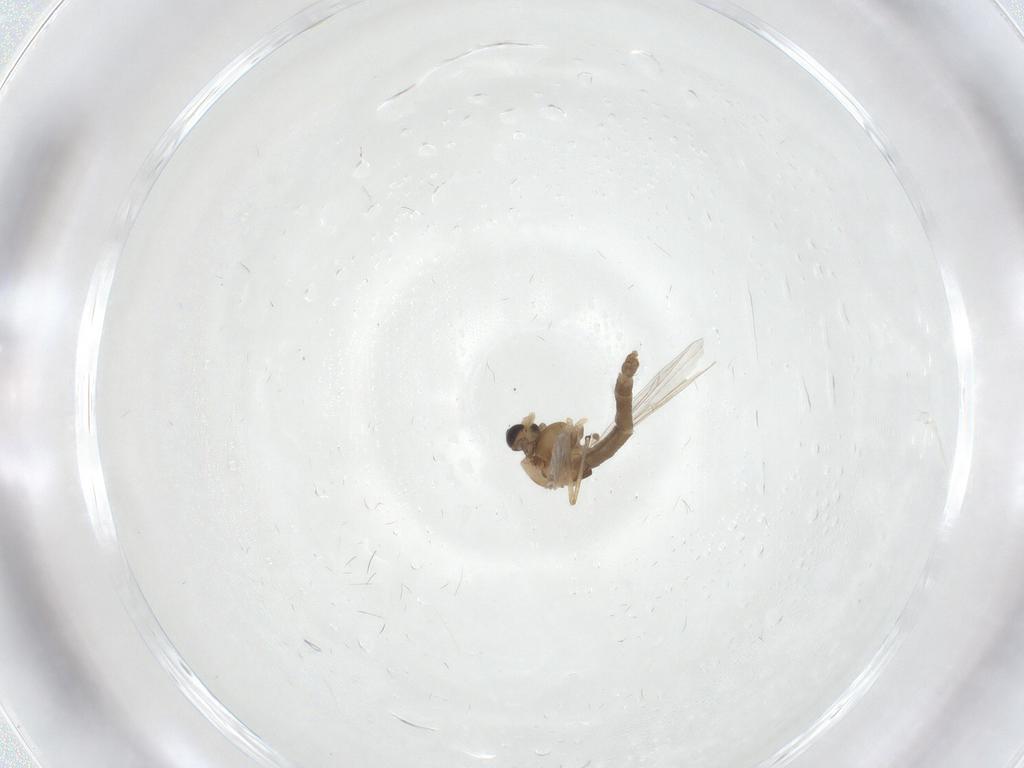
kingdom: Animalia
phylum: Arthropoda
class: Insecta
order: Diptera
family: Chironomidae
